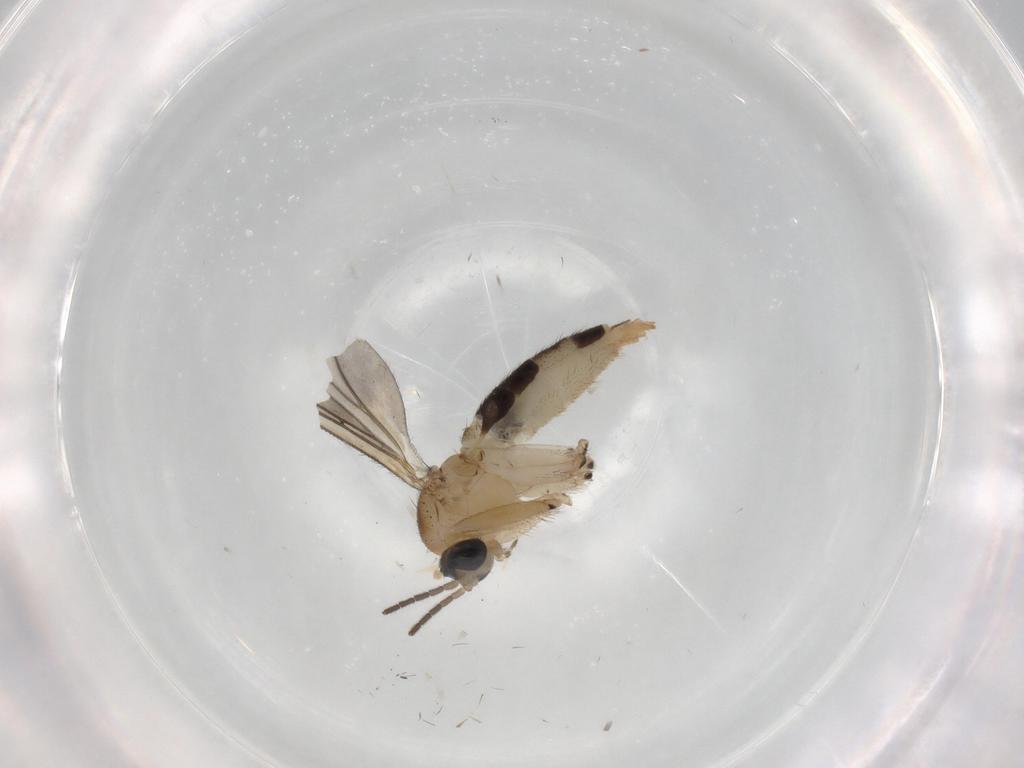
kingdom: Animalia
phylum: Arthropoda
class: Insecta
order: Diptera
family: Sciaridae
